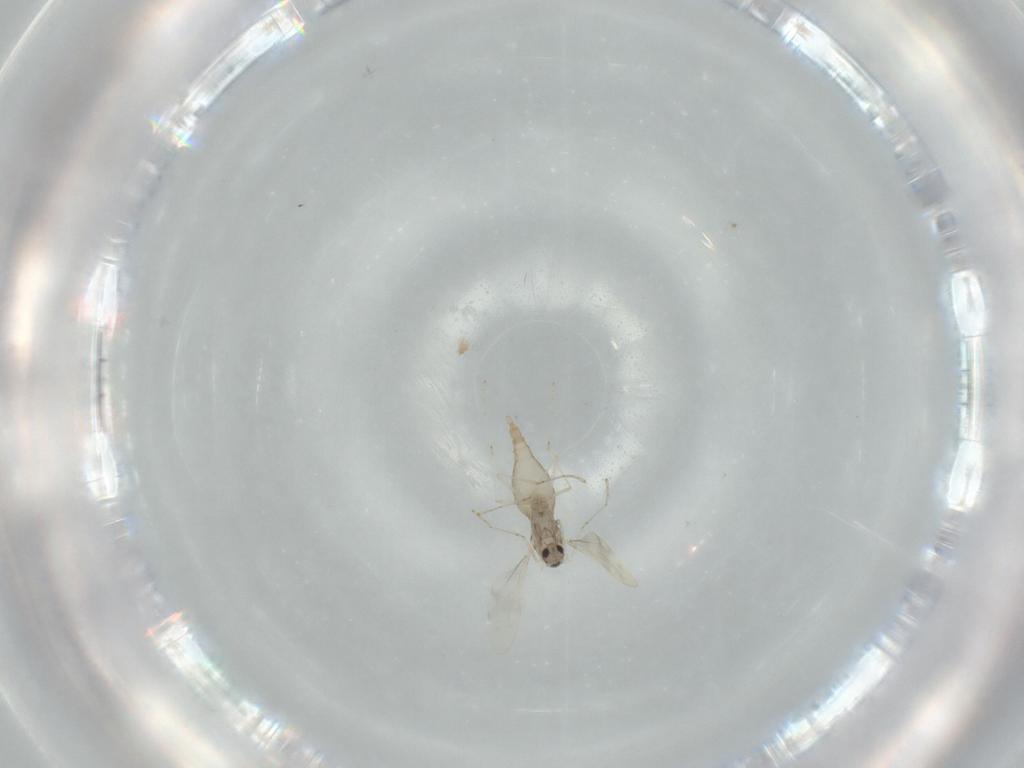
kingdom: Animalia
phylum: Arthropoda
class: Insecta
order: Diptera
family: Cecidomyiidae
